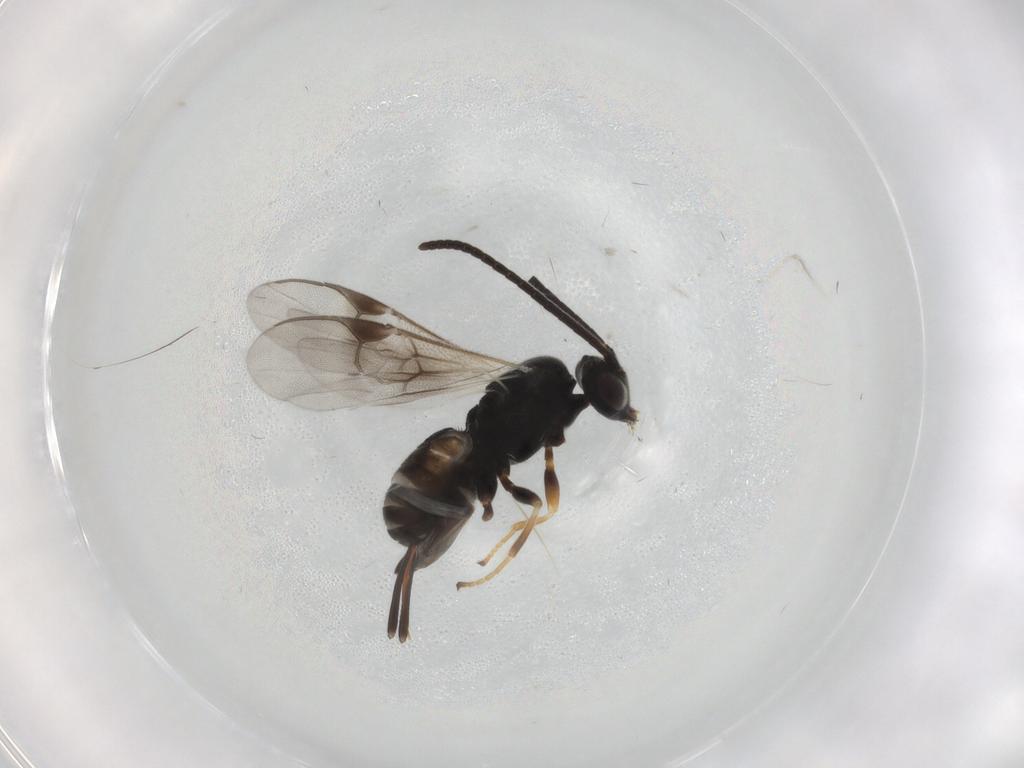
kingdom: Animalia
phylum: Arthropoda
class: Insecta
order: Hymenoptera
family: Braconidae
